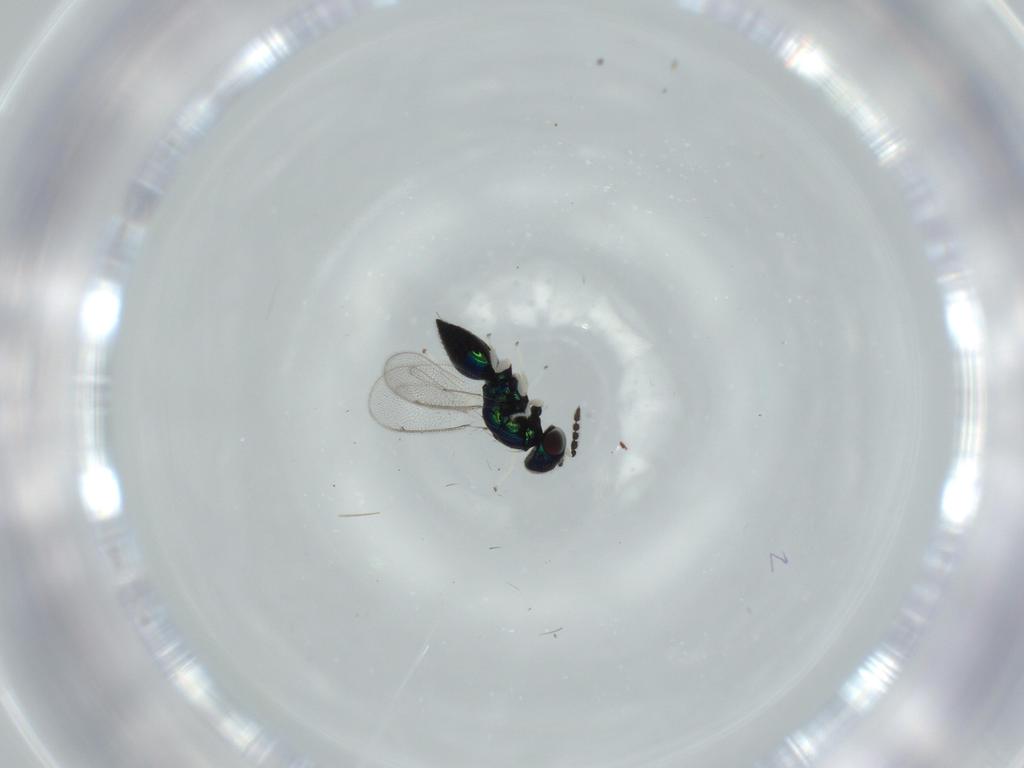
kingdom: Animalia
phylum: Arthropoda
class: Insecta
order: Hymenoptera
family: Eulophidae
